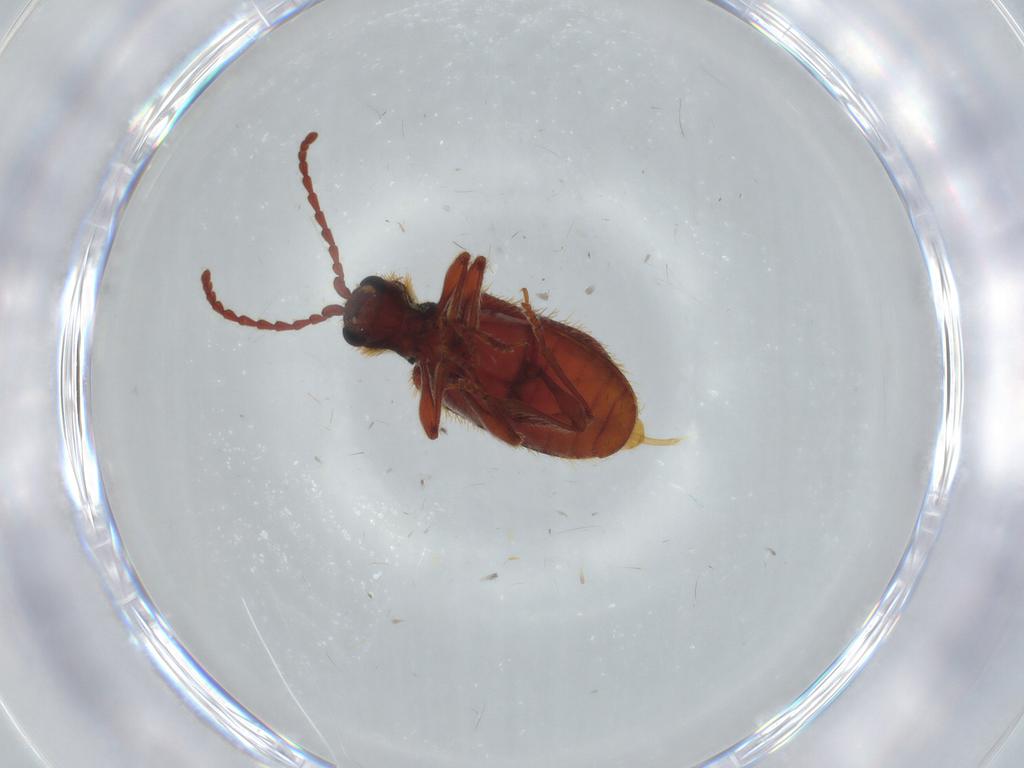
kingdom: Animalia
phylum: Arthropoda
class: Insecta
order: Coleoptera
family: Ptinidae
